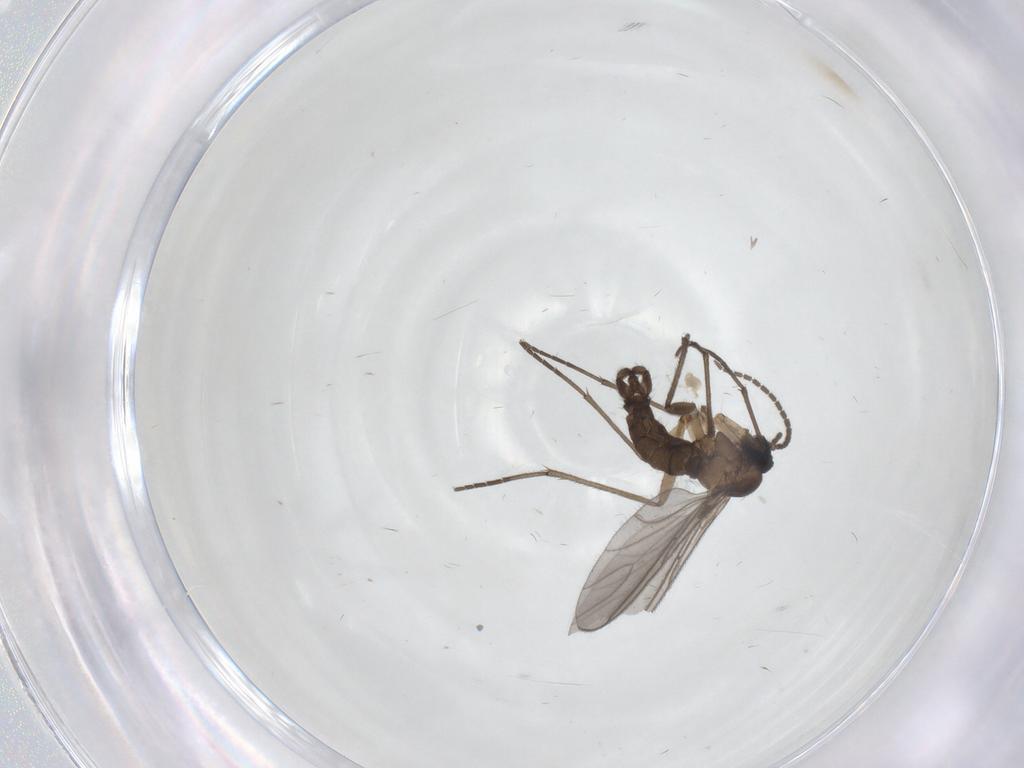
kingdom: Animalia
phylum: Arthropoda
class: Insecta
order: Diptera
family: Sciaridae
